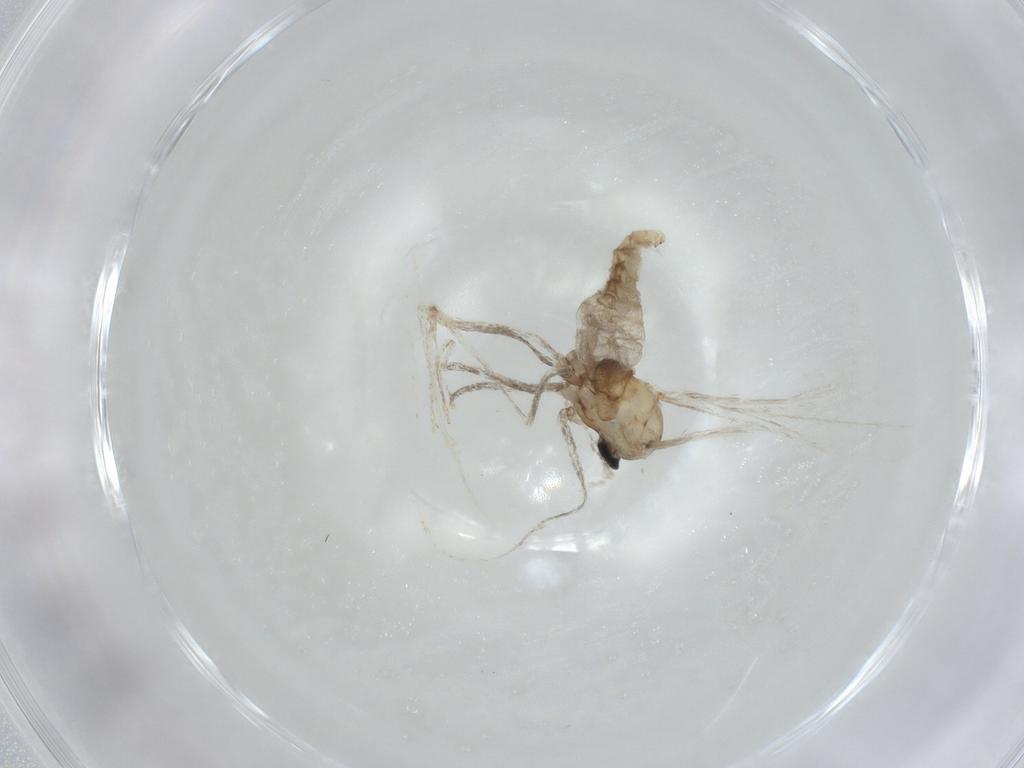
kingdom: Animalia
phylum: Arthropoda
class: Insecta
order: Diptera
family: Cecidomyiidae
